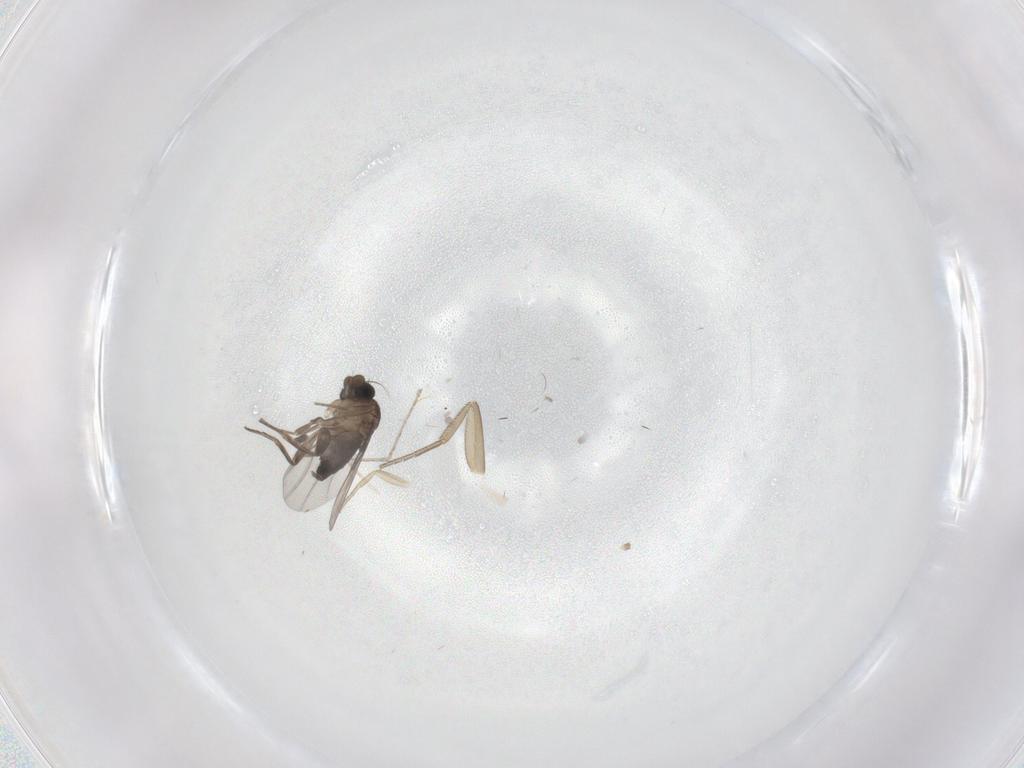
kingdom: Animalia
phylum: Arthropoda
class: Insecta
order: Diptera
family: Phoridae
